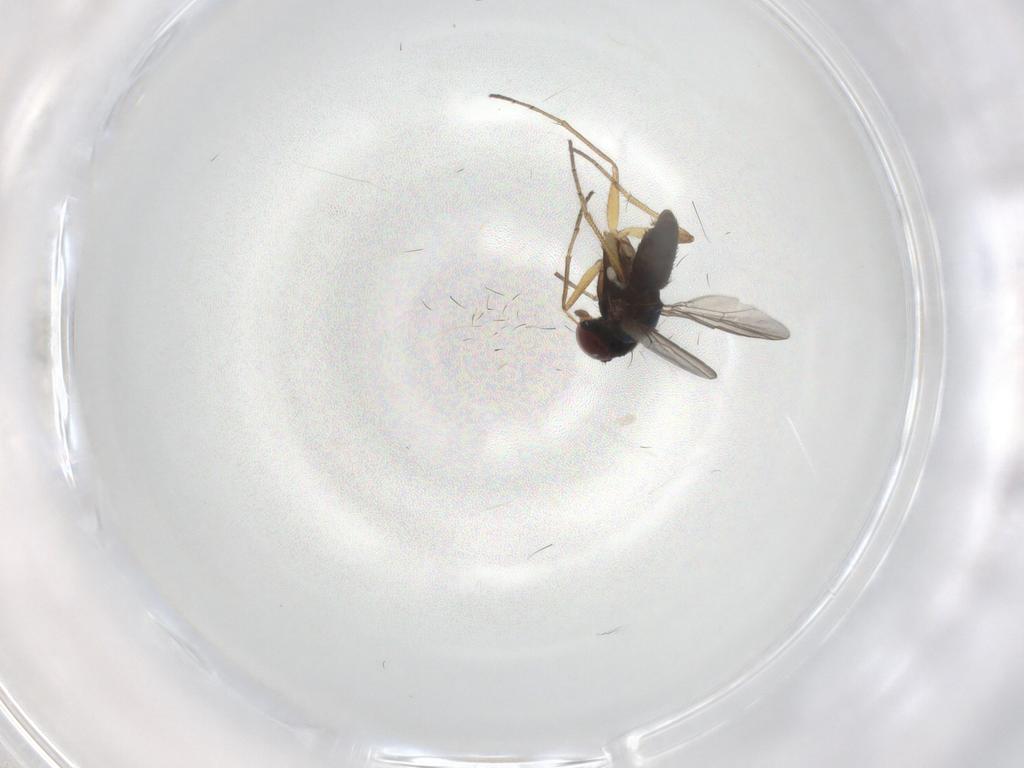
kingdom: Animalia
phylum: Arthropoda
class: Insecta
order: Diptera
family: Dolichopodidae
